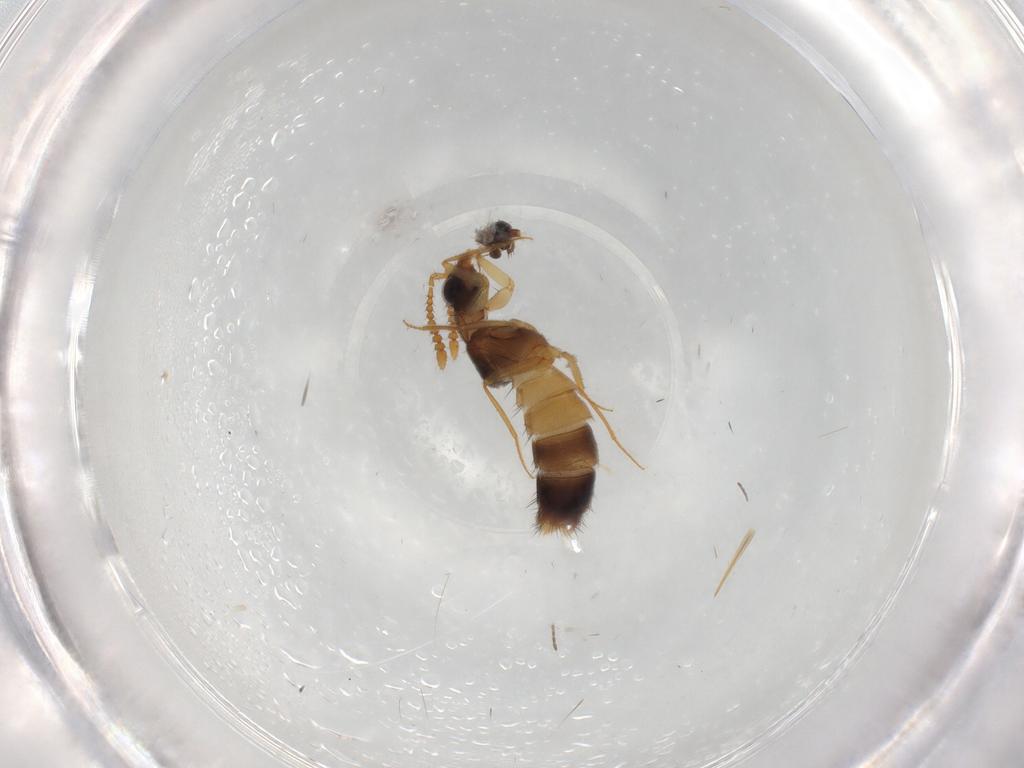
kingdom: Animalia
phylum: Arthropoda
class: Insecta
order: Coleoptera
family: Staphylinidae
